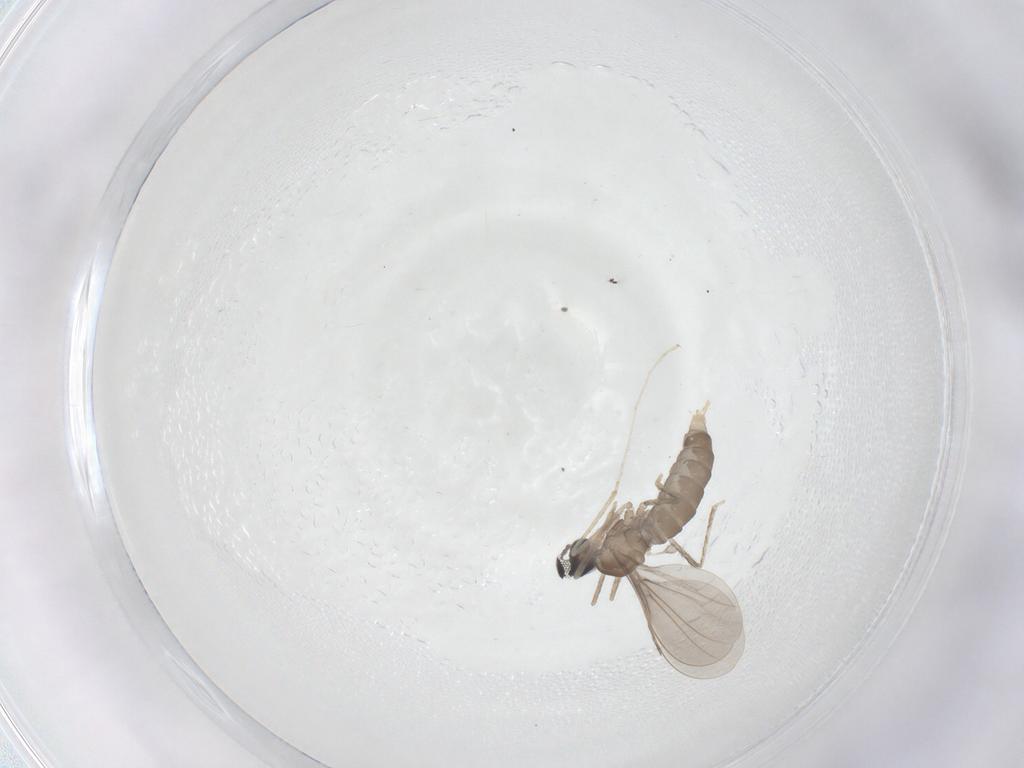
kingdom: Animalia
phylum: Arthropoda
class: Insecta
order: Diptera
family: Cecidomyiidae
